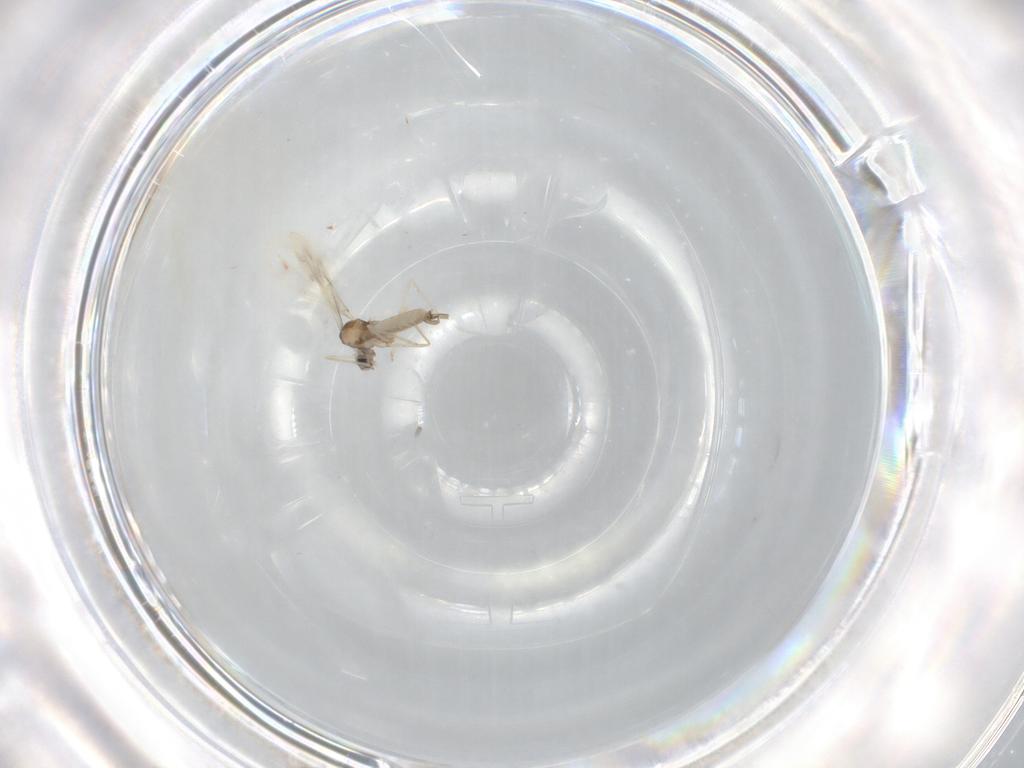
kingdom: Animalia
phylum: Arthropoda
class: Insecta
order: Diptera
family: Cecidomyiidae
